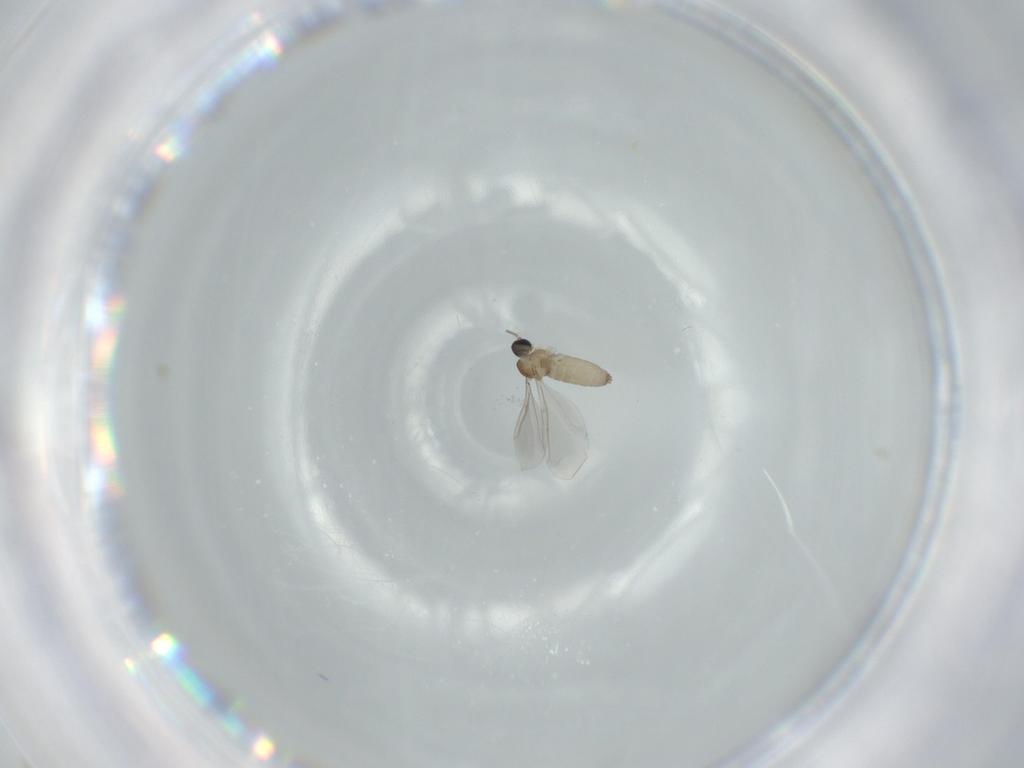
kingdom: Animalia
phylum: Arthropoda
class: Insecta
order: Diptera
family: Cecidomyiidae
